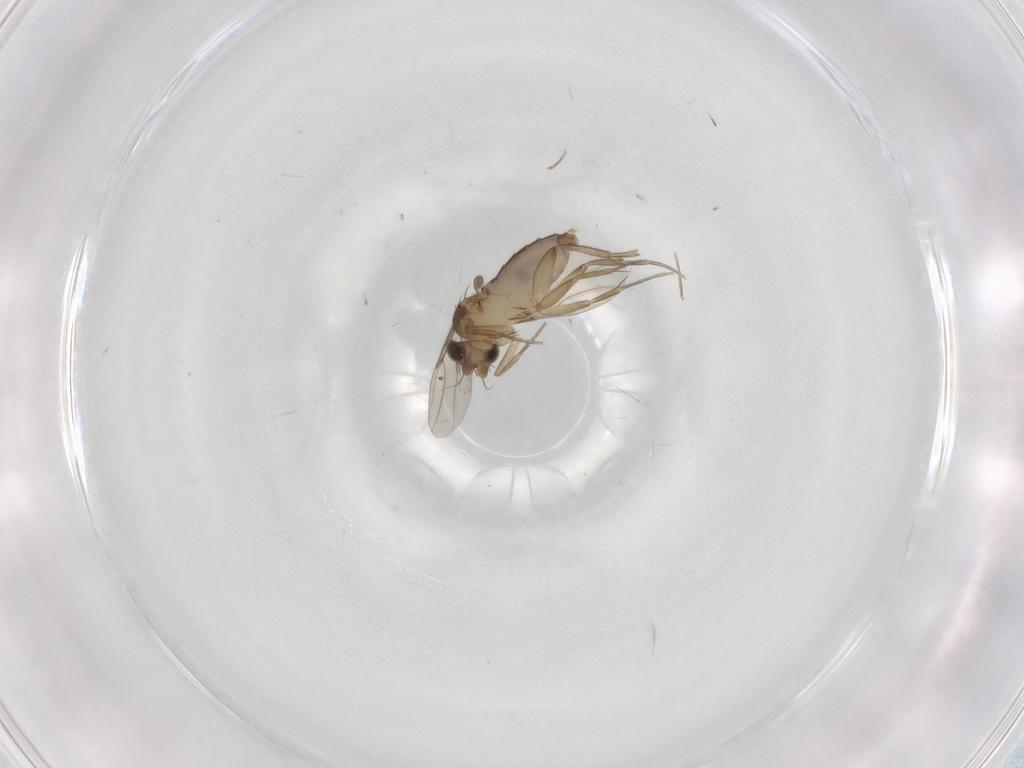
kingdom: Animalia
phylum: Arthropoda
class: Insecta
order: Diptera
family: Phoridae
